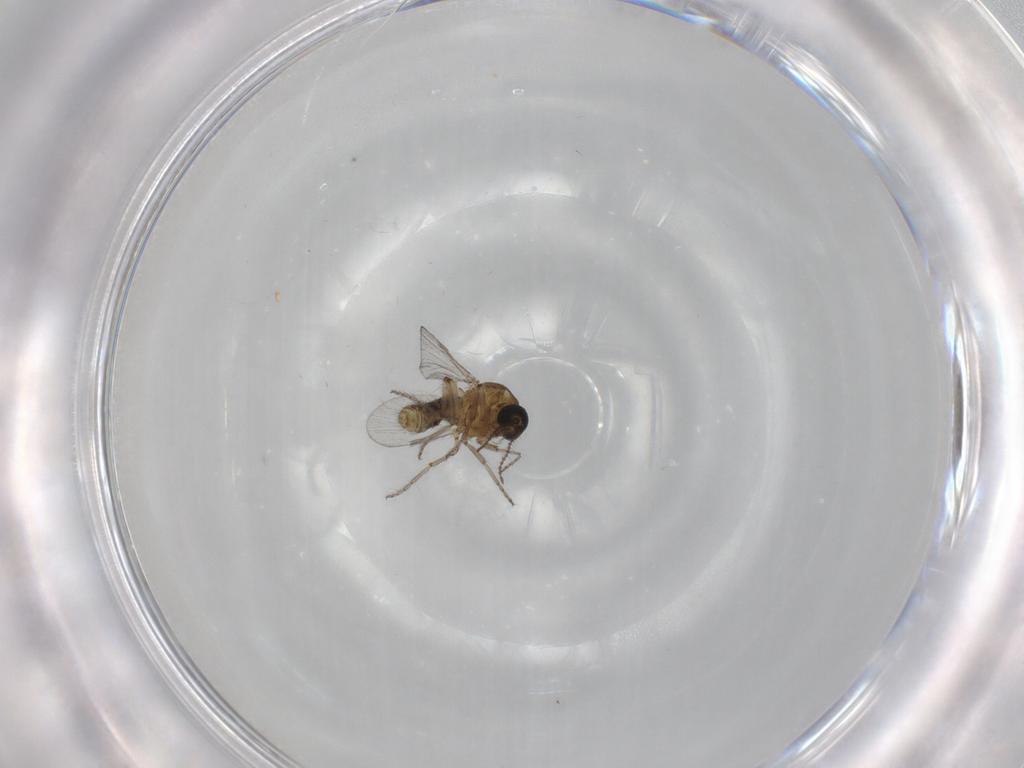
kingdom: Animalia
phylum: Arthropoda
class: Insecta
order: Diptera
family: Ceratopogonidae
